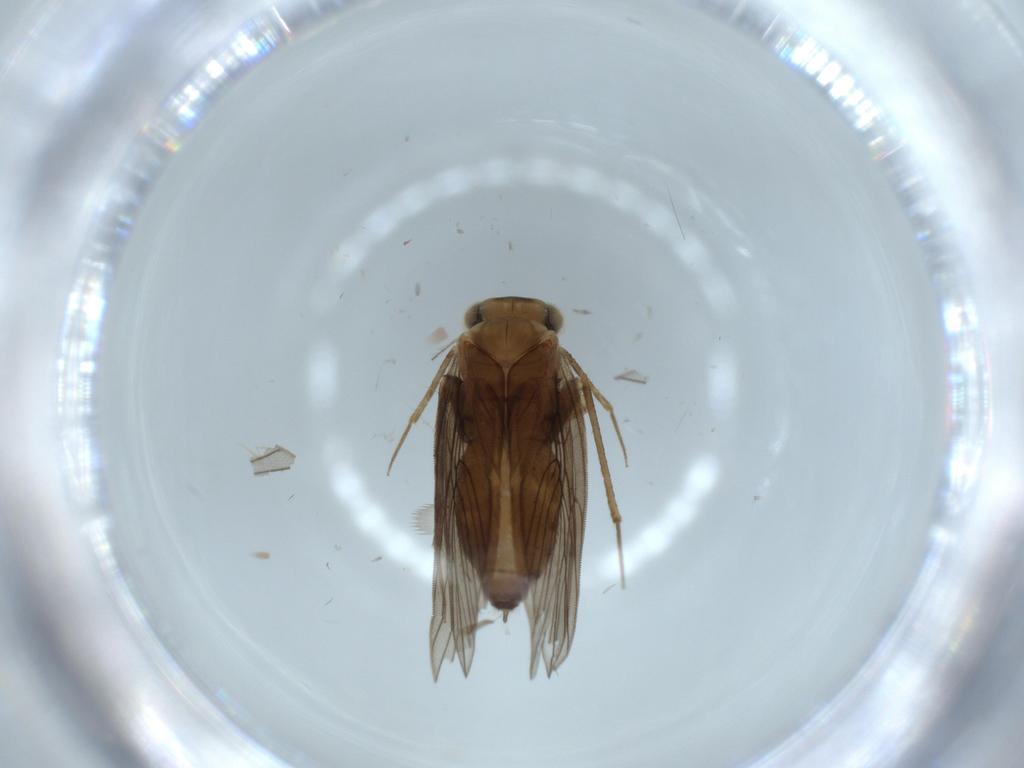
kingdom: Animalia
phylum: Arthropoda
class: Insecta
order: Psocodea
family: Lepidopsocidae
